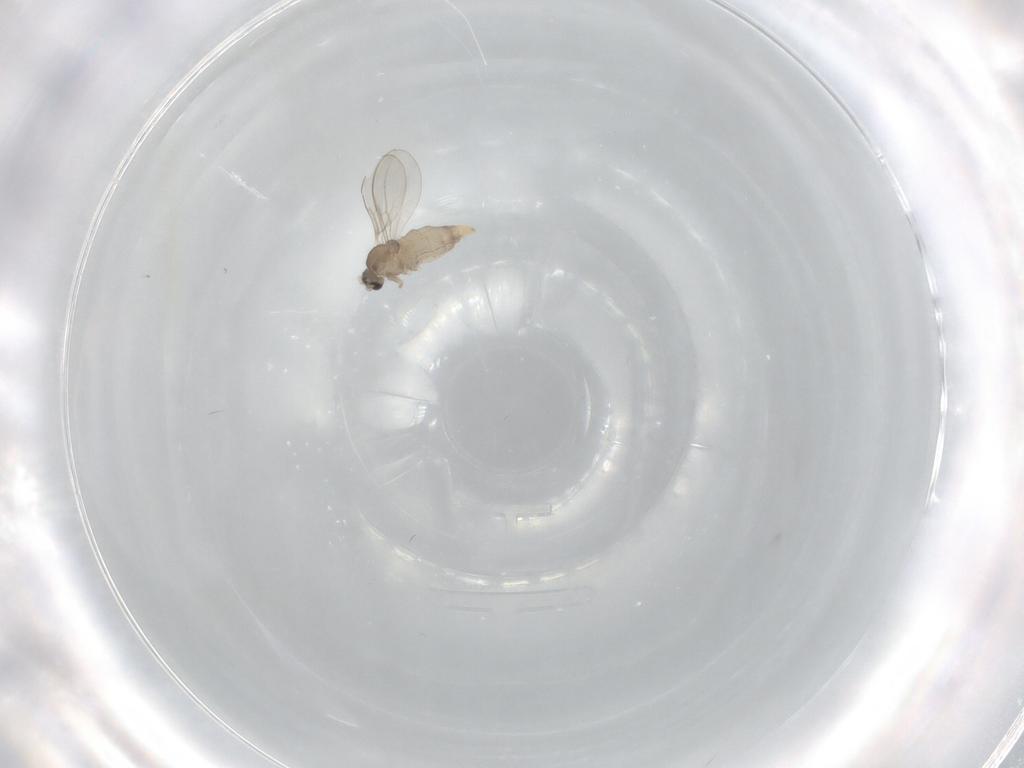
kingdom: Animalia
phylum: Arthropoda
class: Insecta
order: Diptera
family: Cecidomyiidae
